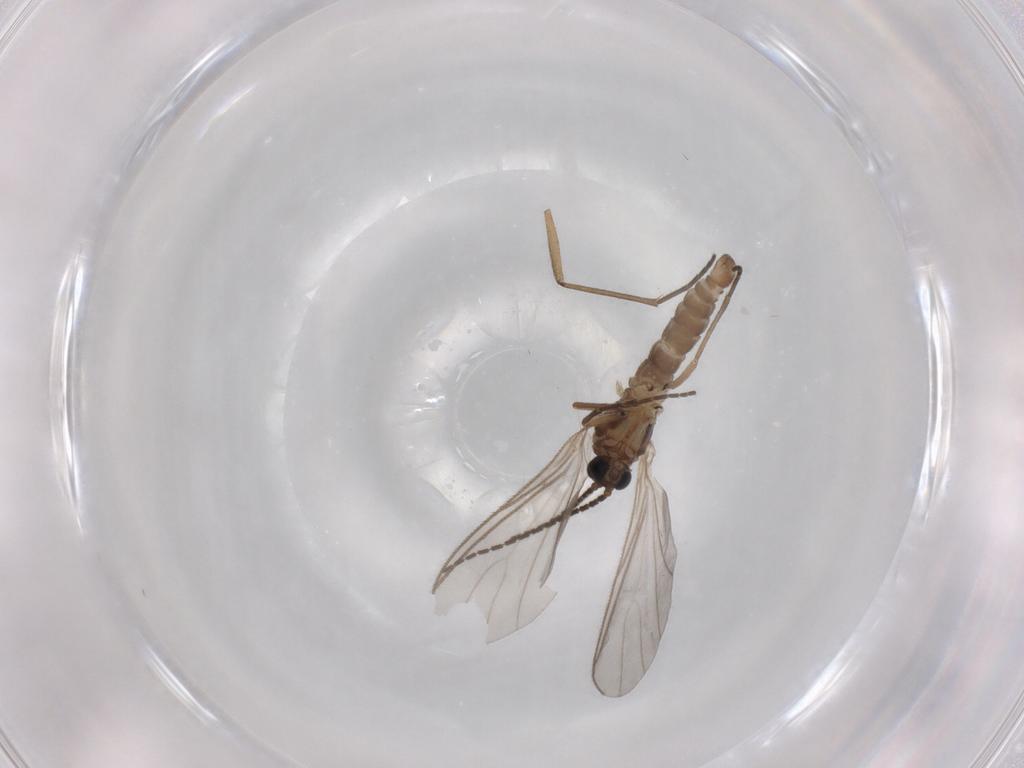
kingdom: Animalia
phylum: Arthropoda
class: Insecta
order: Diptera
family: Sciaridae
